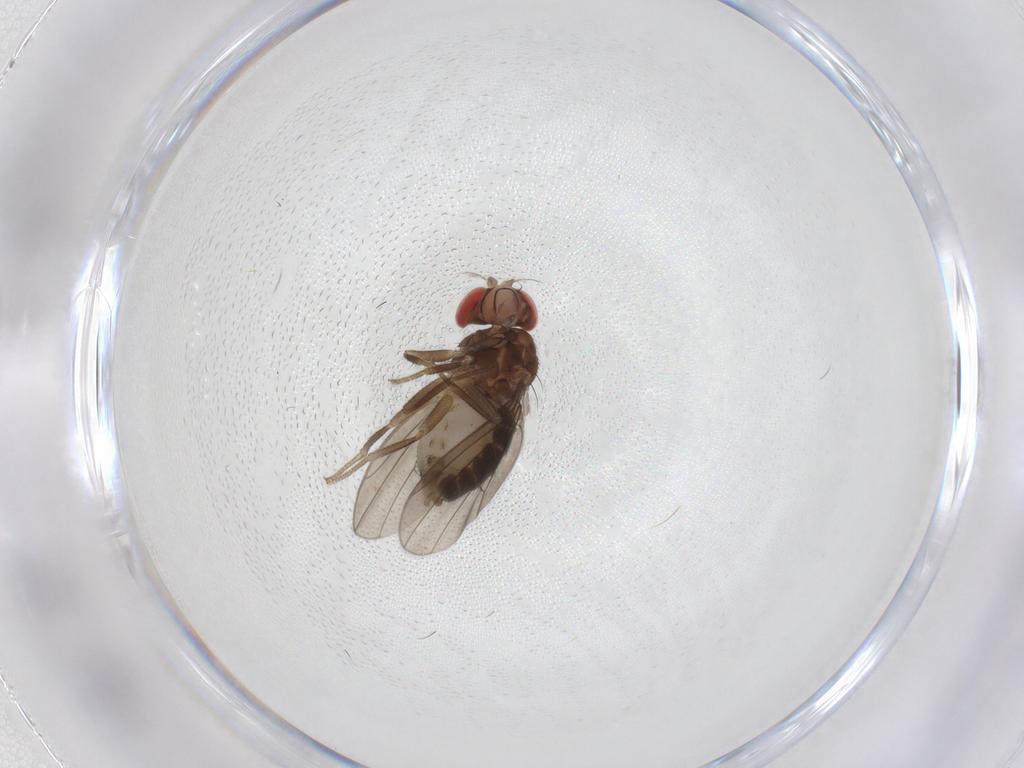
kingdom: Animalia
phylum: Arthropoda
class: Insecta
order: Diptera
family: Drosophilidae
